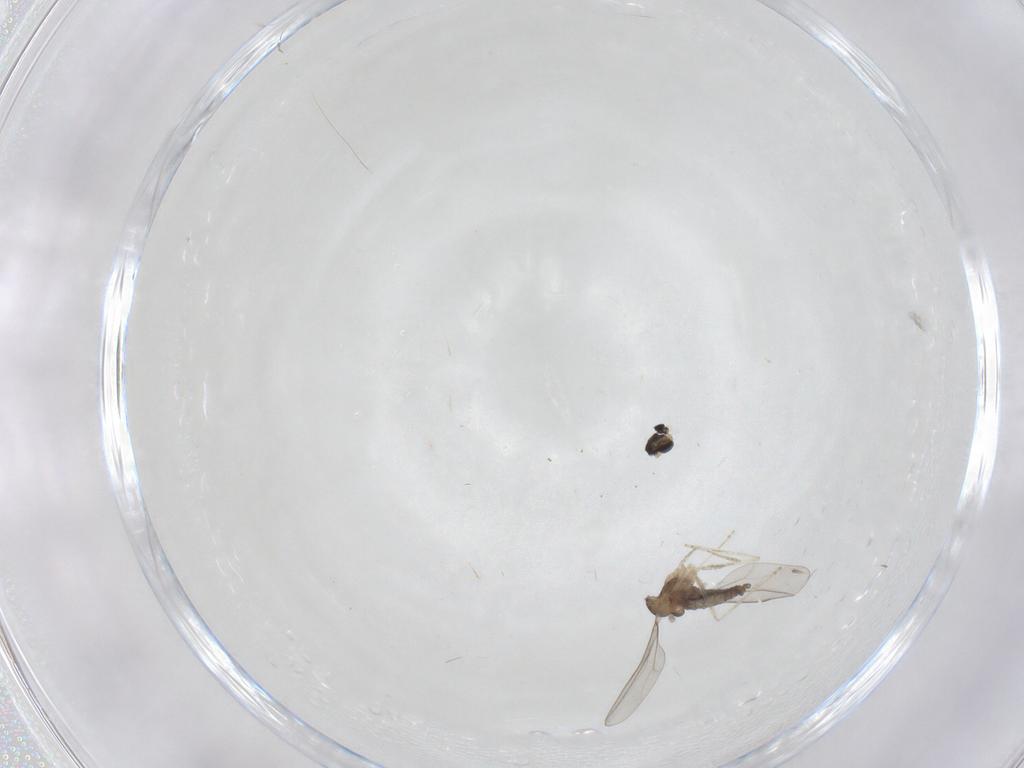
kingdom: Animalia
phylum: Arthropoda
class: Insecta
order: Diptera
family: Cecidomyiidae
